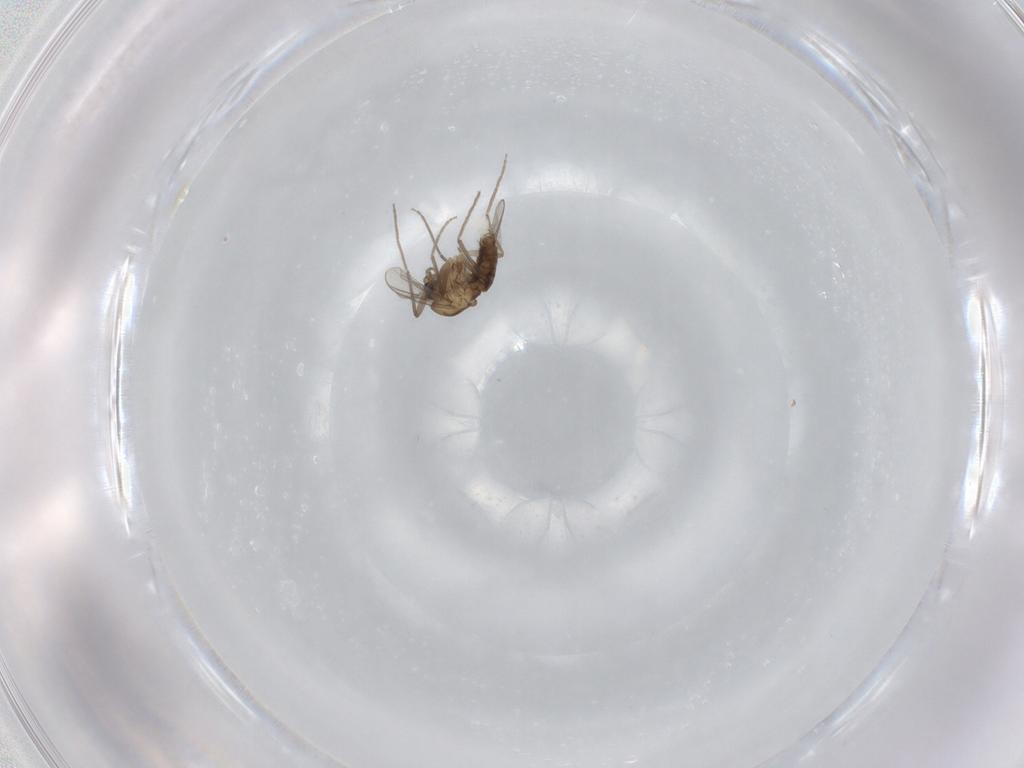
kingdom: Animalia
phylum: Arthropoda
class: Insecta
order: Diptera
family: Chironomidae
